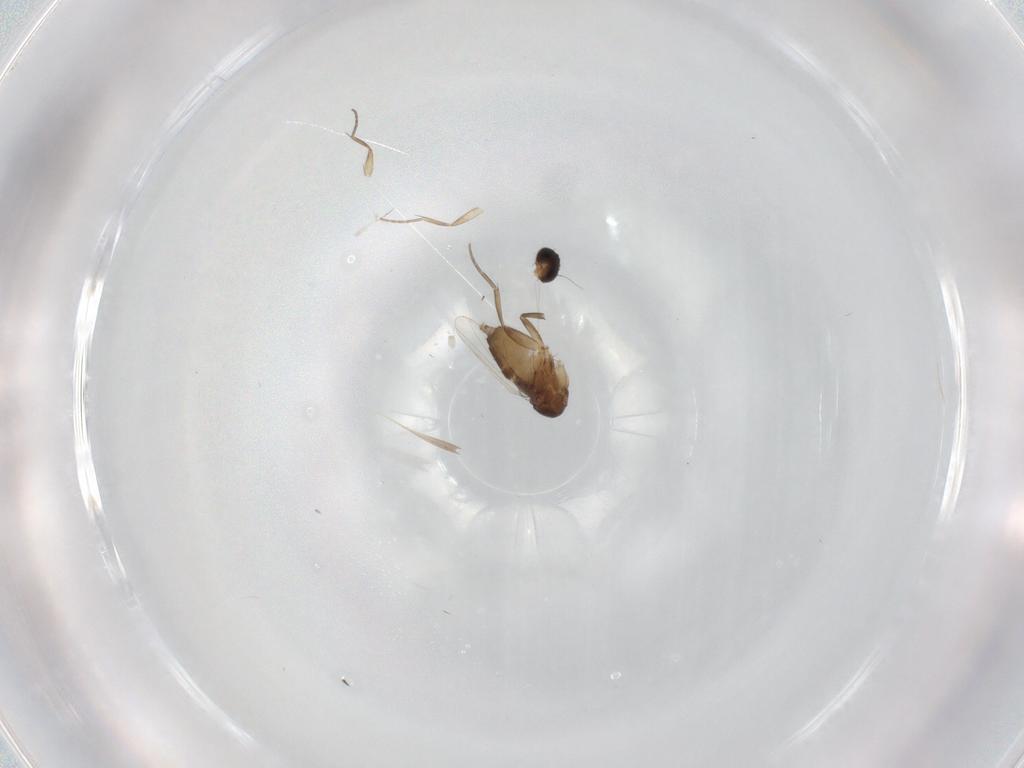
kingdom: Animalia
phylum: Arthropoda
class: Insecta
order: Diptera
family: Phoridae
